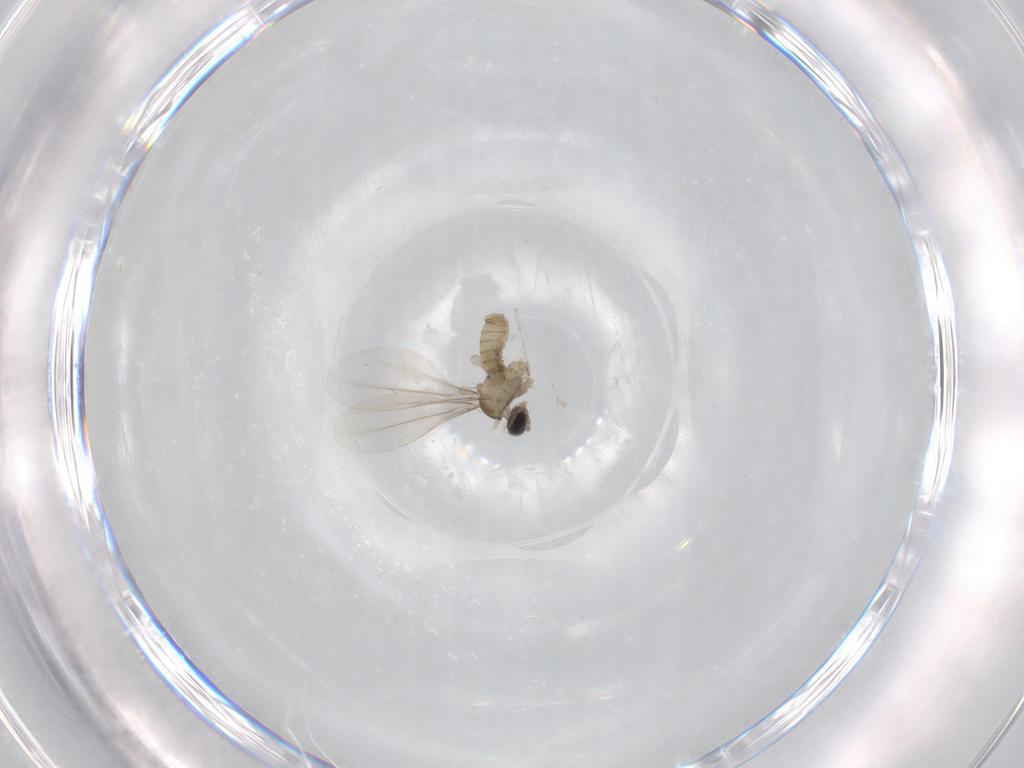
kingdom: Animalia
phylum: Arthropoda
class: Insecta
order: Diptera
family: Cecidomyiidae
